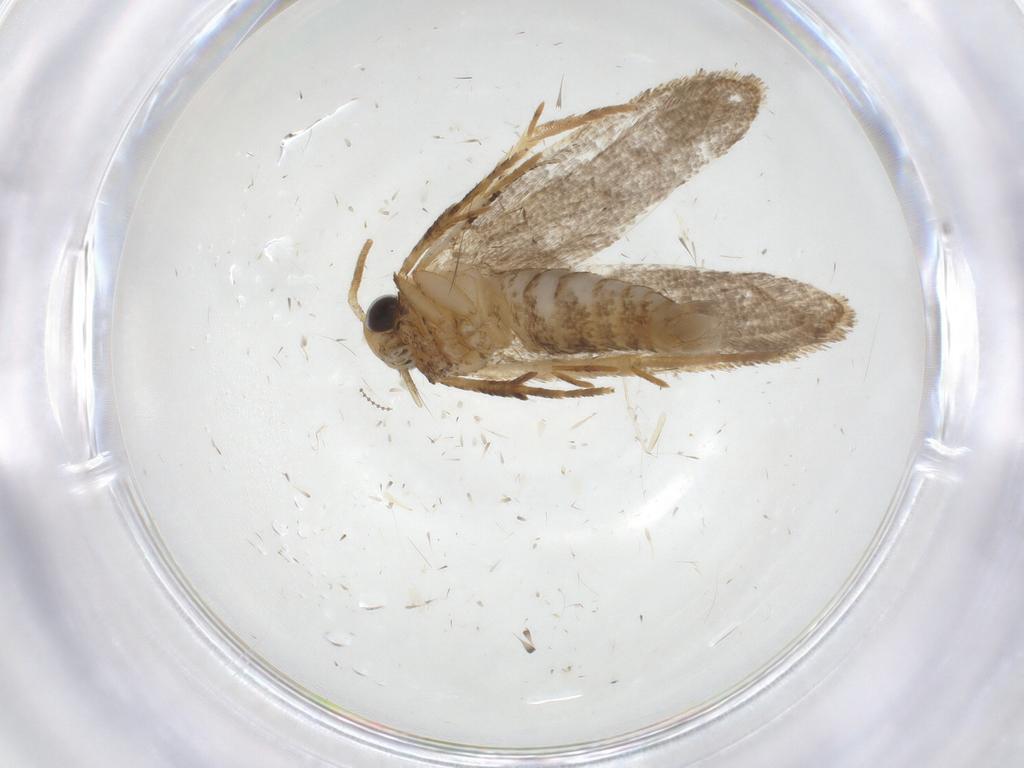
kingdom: Animalia
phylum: Arthropoda
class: Insecta
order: Lepidoptera
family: Oecophoridae
